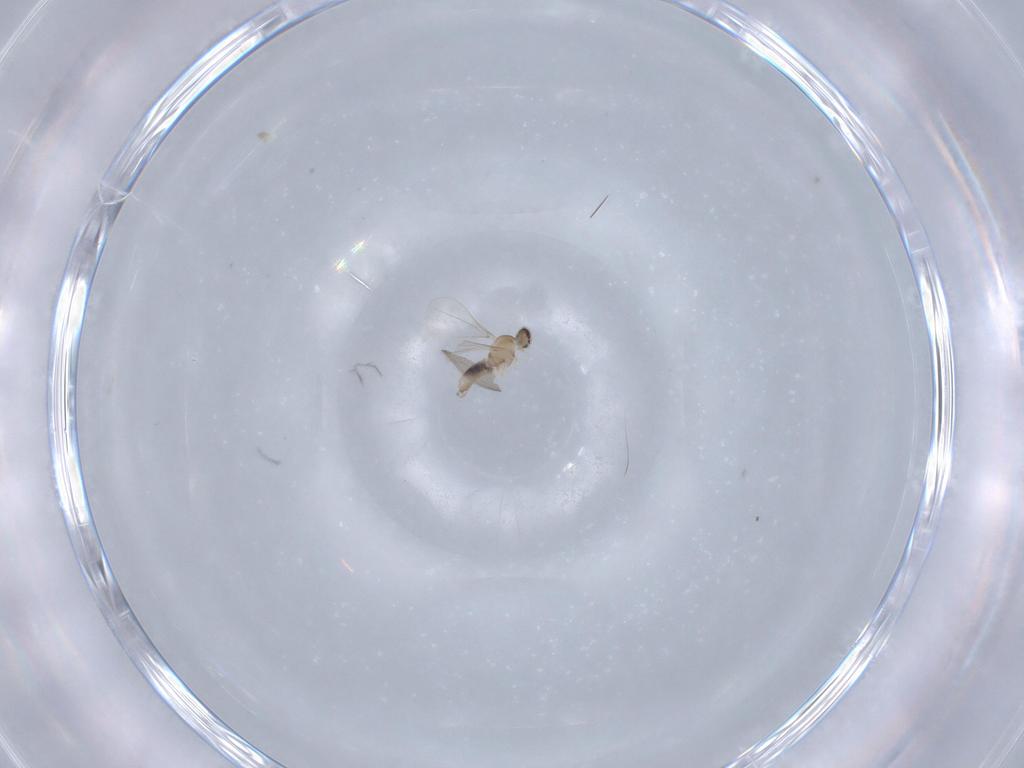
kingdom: Animalia
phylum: Arthropoda
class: Insecta
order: Diptera
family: Cecidomyiidae
